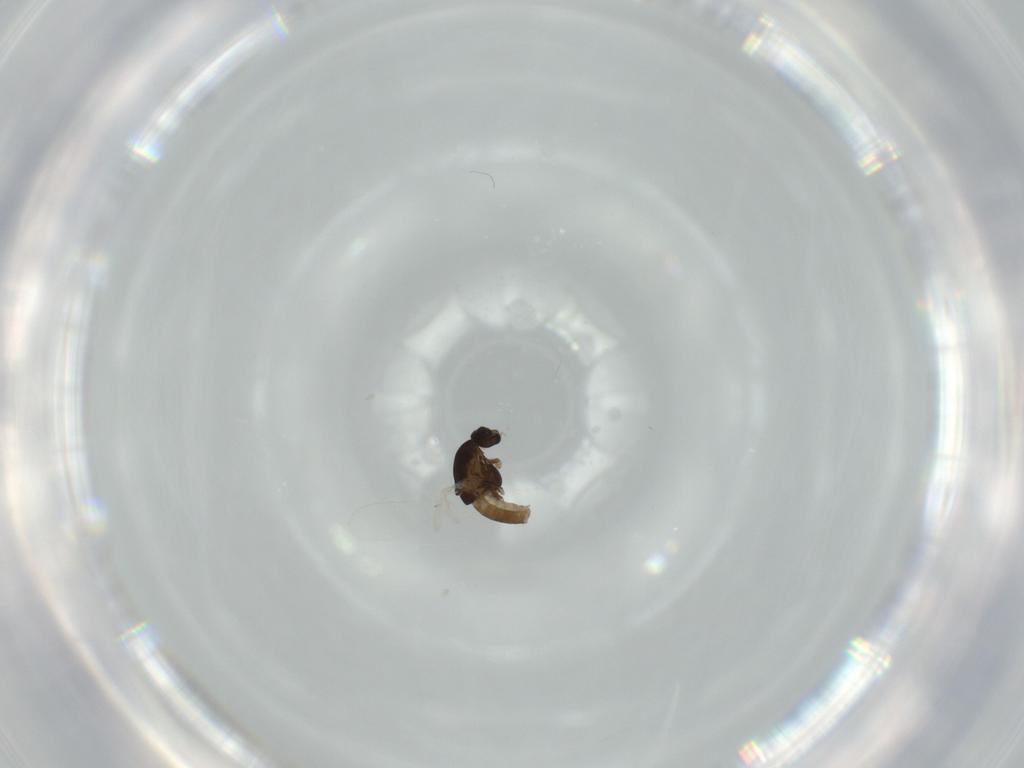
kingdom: Animalia
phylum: Arthropoda
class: Insecta
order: Diptera
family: Chironomidae
